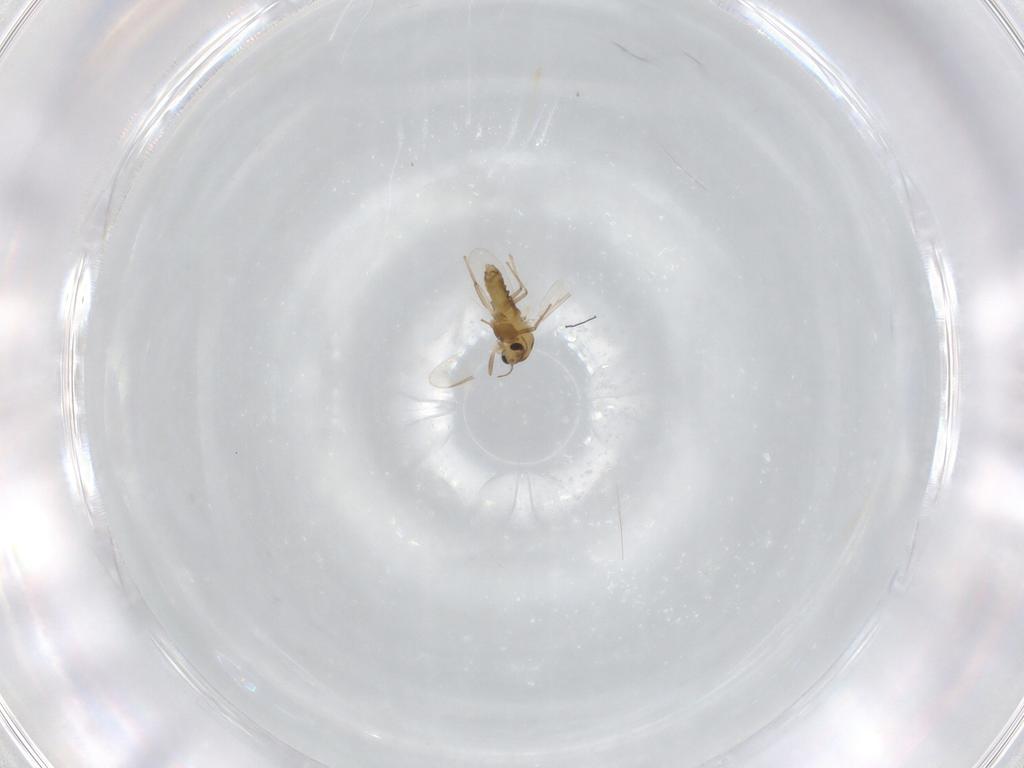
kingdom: Animalia
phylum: Arthropoda
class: Insecta
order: Diptera
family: Chironomidae
